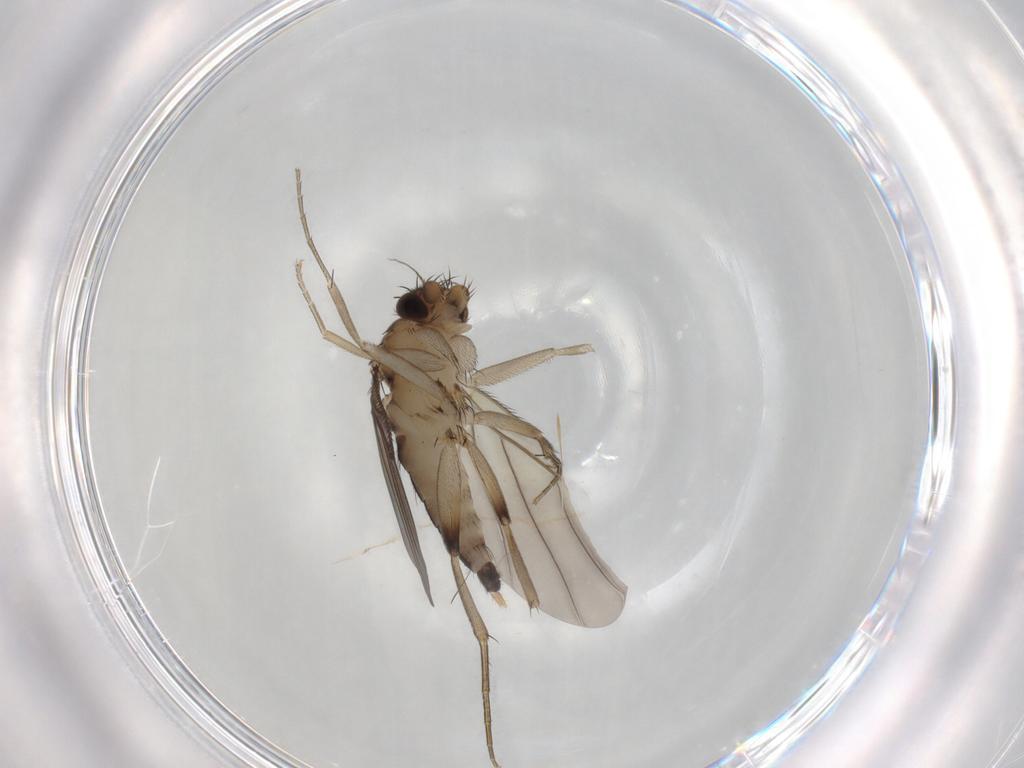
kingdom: Animalia
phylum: Arthropoda
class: Insecta
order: Diptera
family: Phoridae
